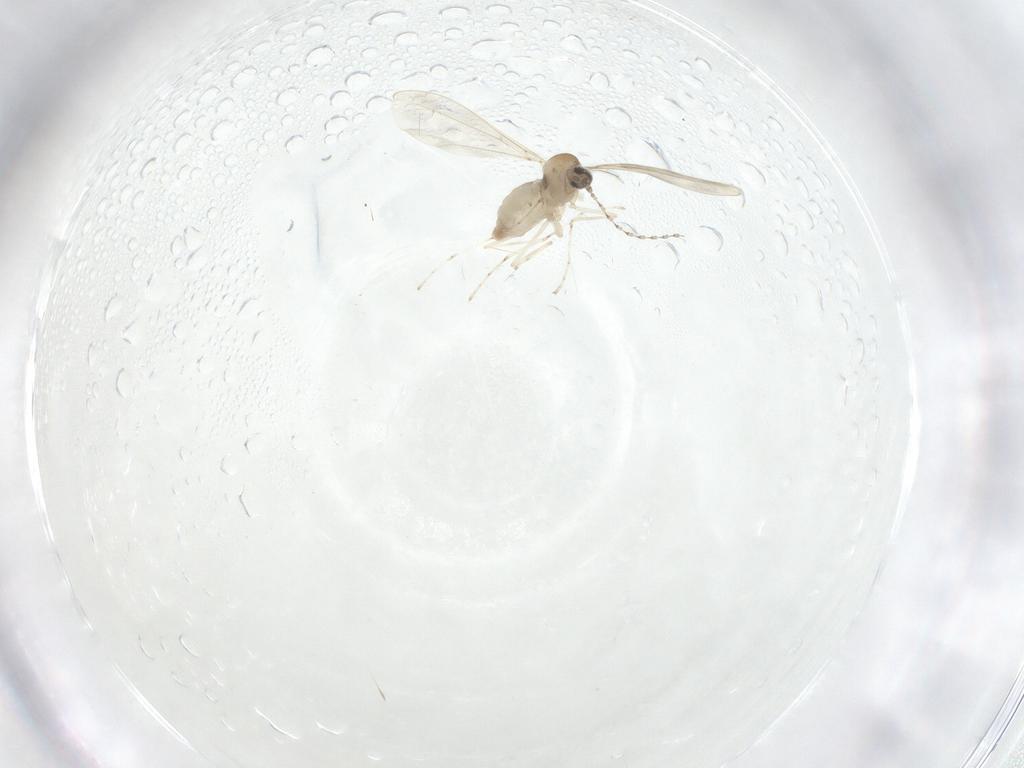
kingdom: Animalia
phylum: Arthropoda
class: Insecta
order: Diptera
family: Cecidomyiidae
